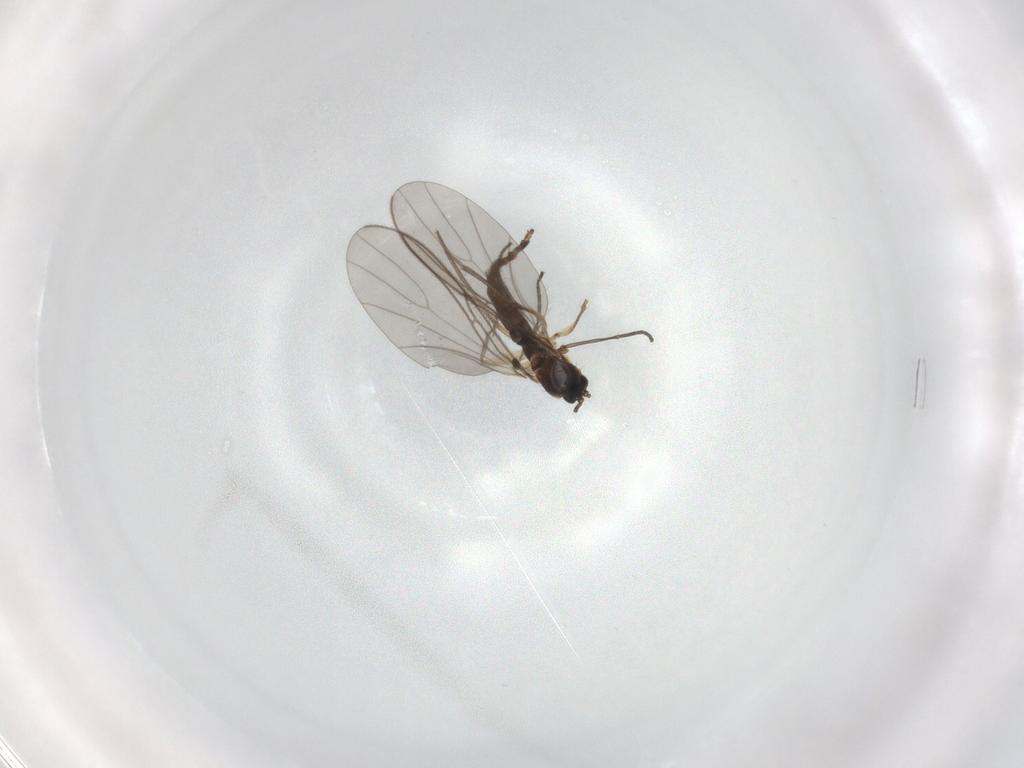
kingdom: Animalia
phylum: Arthropoda
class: Insecta
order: Diptera
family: Sciaridae
